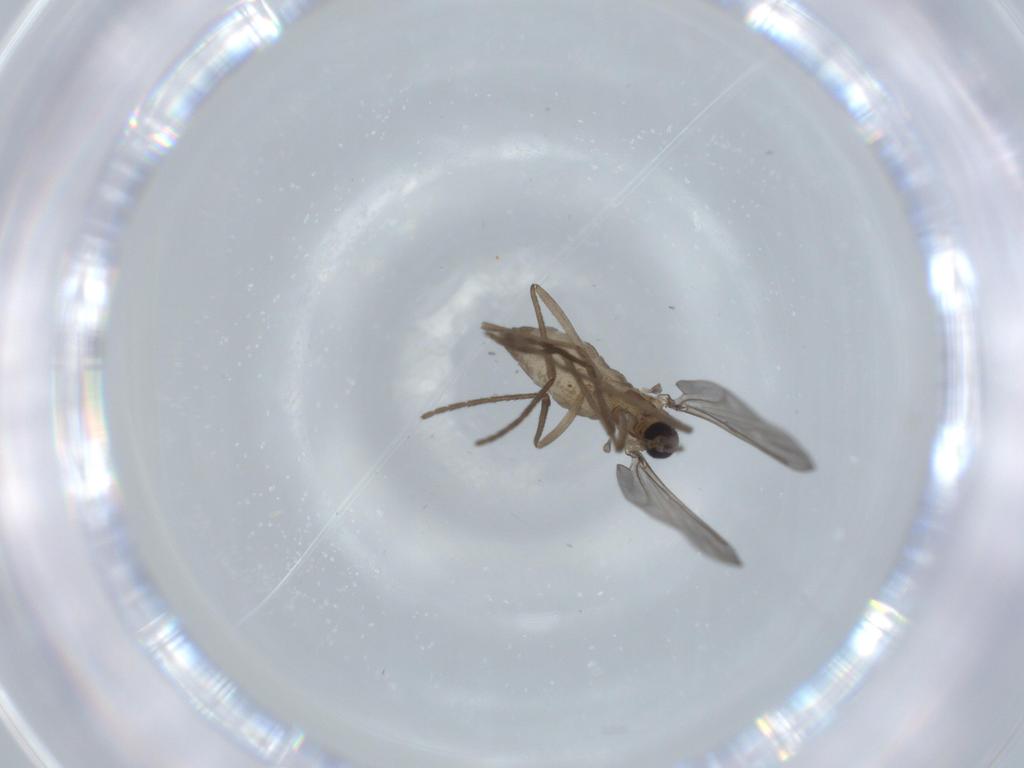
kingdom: Animalia
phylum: Arthropoda
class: Insecta
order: Diptera
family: Cecidomyiidae
